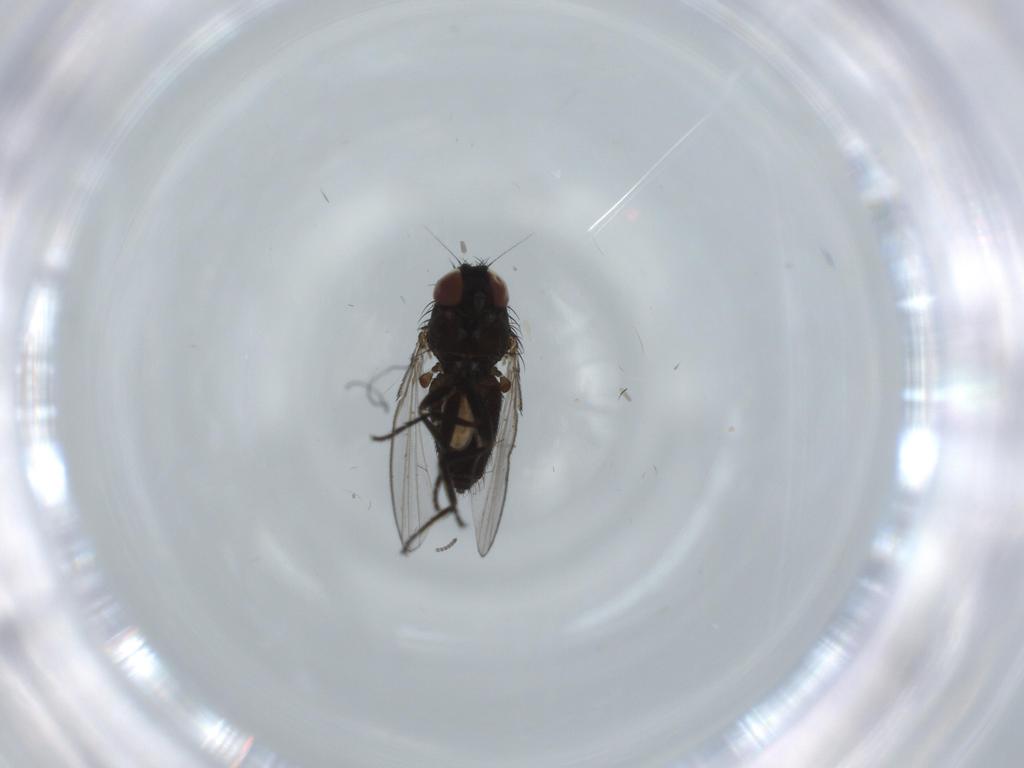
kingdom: Animalia
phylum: Arthropoda
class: Insecta
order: Diptera
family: Milichiidae
